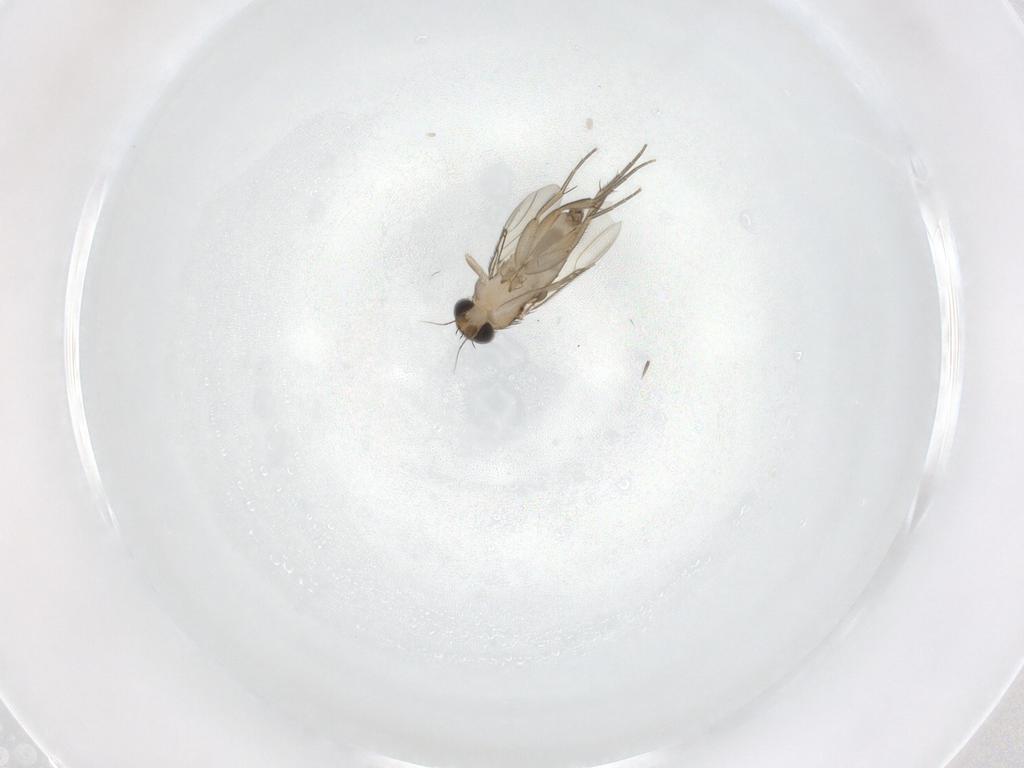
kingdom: Animalia
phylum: Arthropoda
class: Insecta
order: Diptera
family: Phoridae
